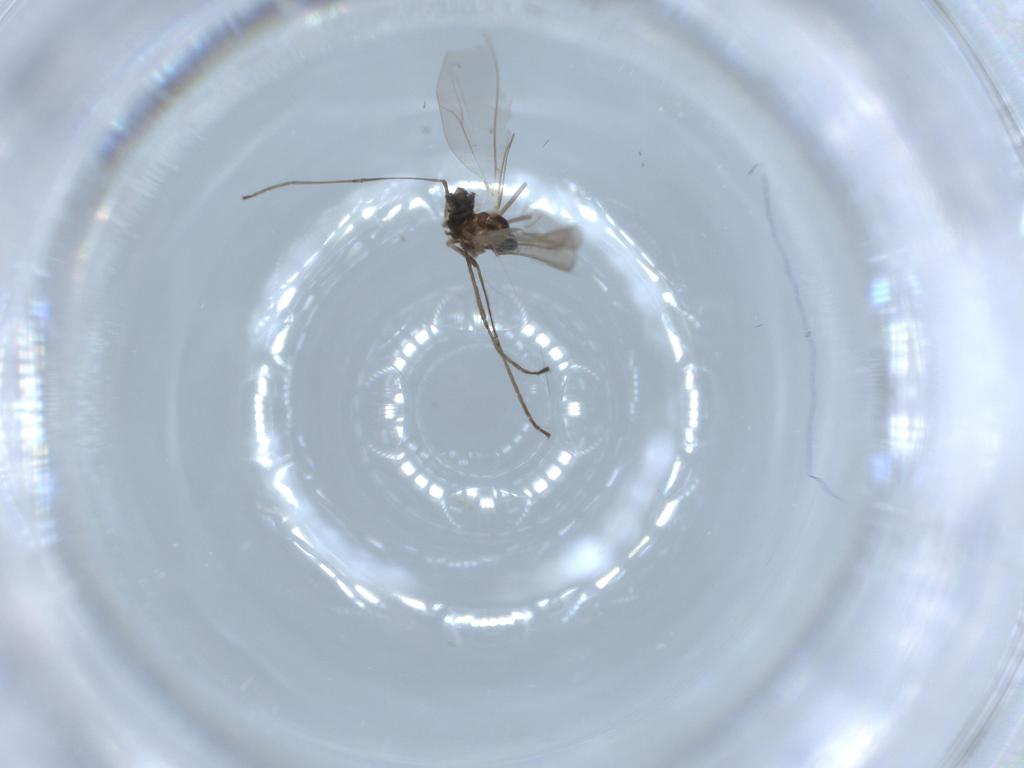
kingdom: Animalia
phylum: Arthropoda
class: Insecta
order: Diptera
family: Cecidomyiidae
